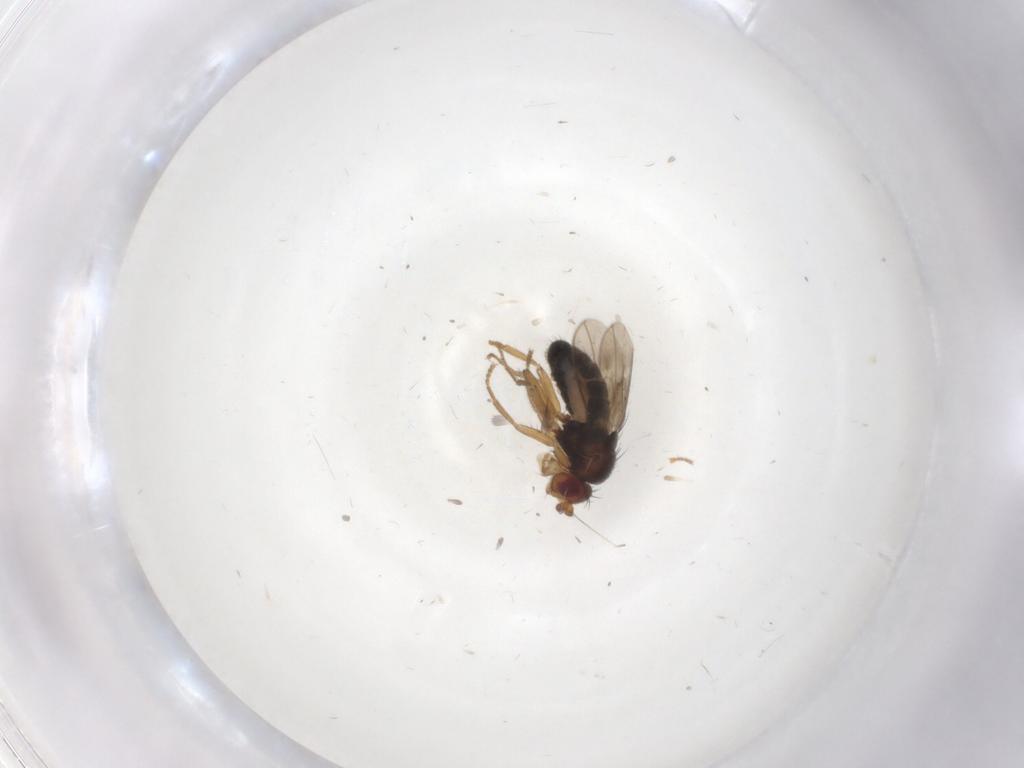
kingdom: Animalia
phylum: Arthropoda
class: Insecta
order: Diptera
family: Sphaeroceridae
